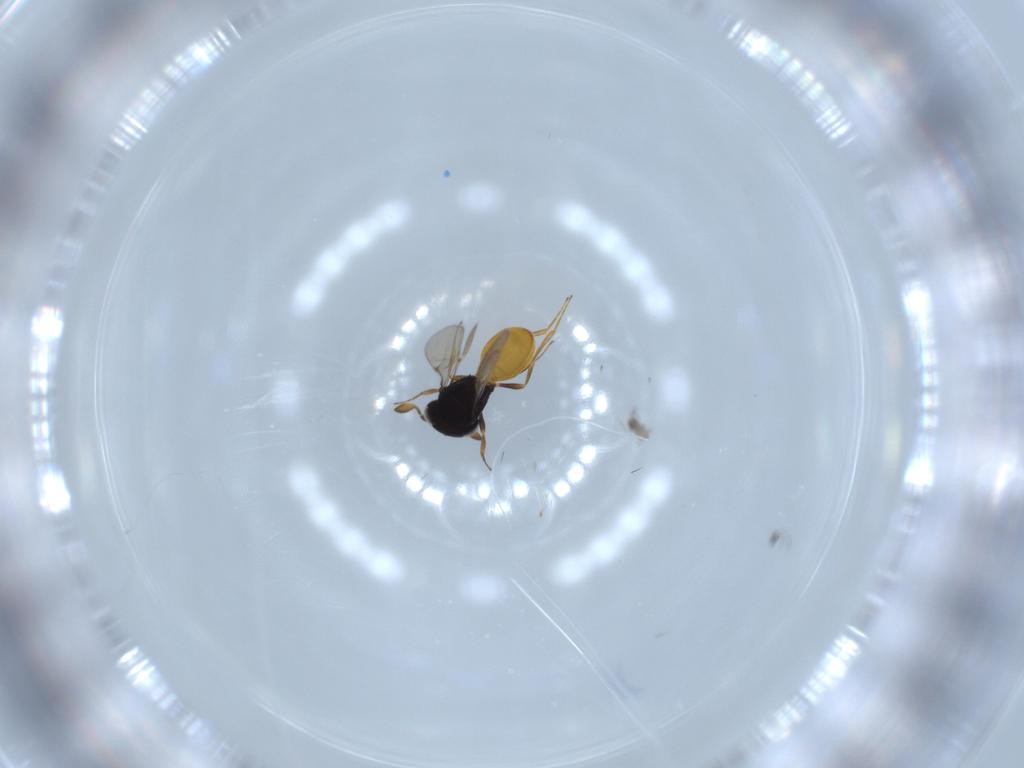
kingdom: Animalia
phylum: Arthropoda
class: Insecta
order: Hymenoptera
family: Scelionidae
